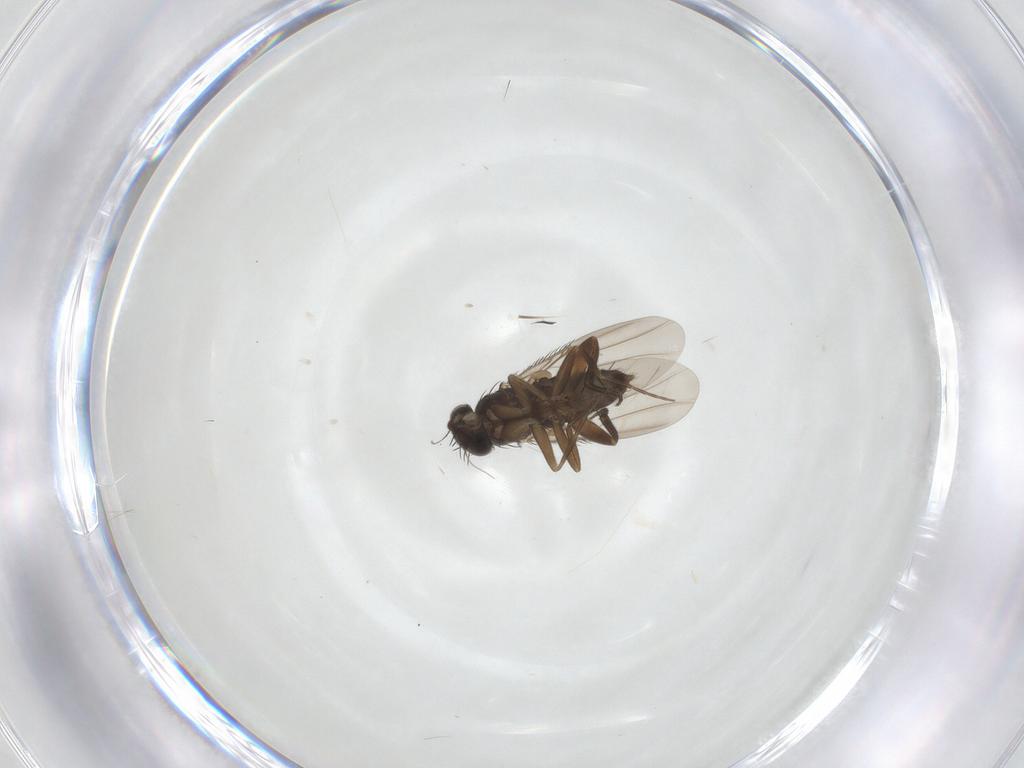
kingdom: Animalia
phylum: Arthropoda
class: Insecta
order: Diptera
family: Phoridae
